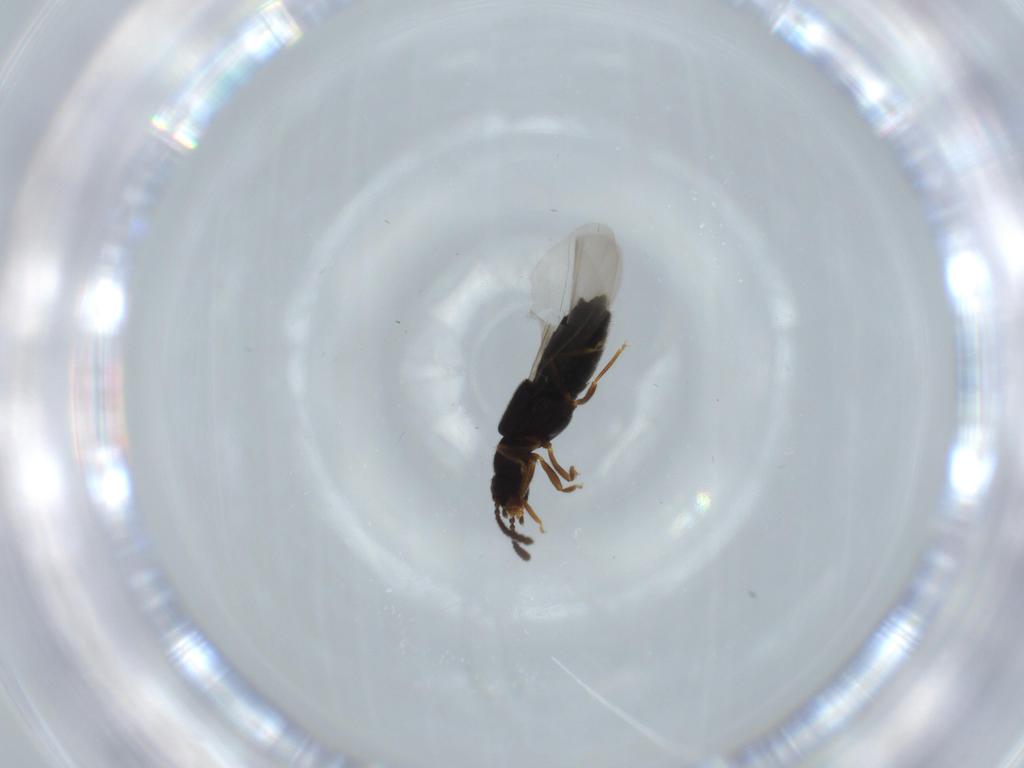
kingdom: Animalia
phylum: Arthropoda
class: Insecta
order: Coleoptera
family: Staphylinidae
